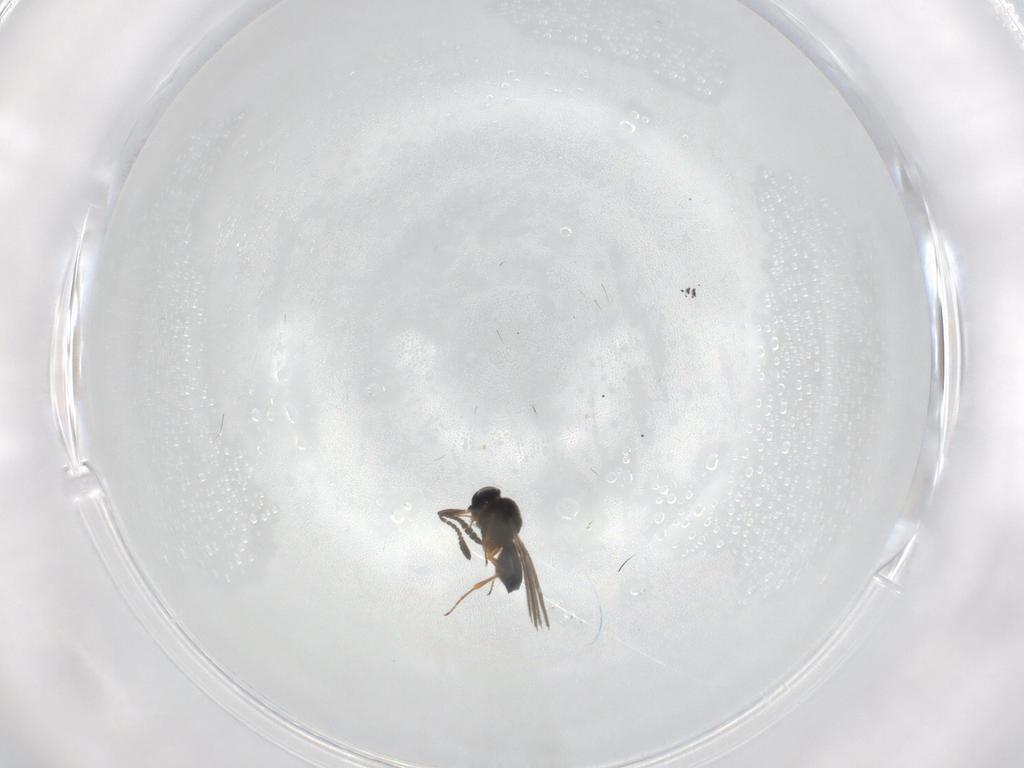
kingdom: Animalia
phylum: Arthropoda
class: Insecta
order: Hymenoptera
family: Scelionidae
